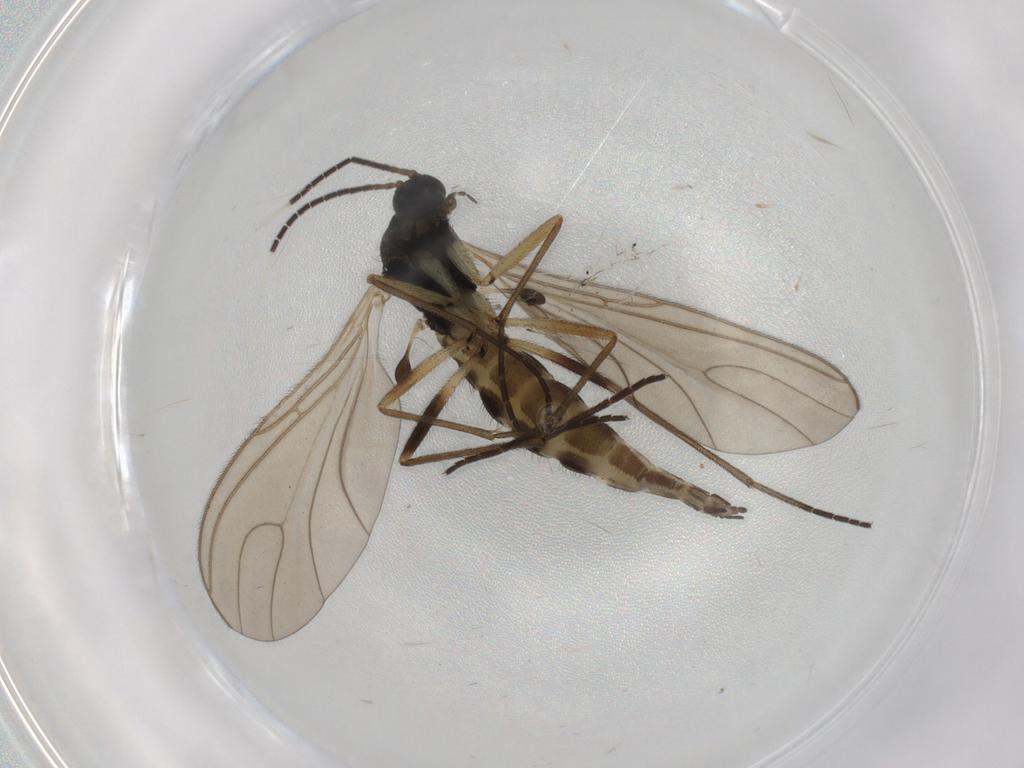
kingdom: Animalia
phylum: Arthropoda
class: Insecta
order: Diptera
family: Sciaridae
